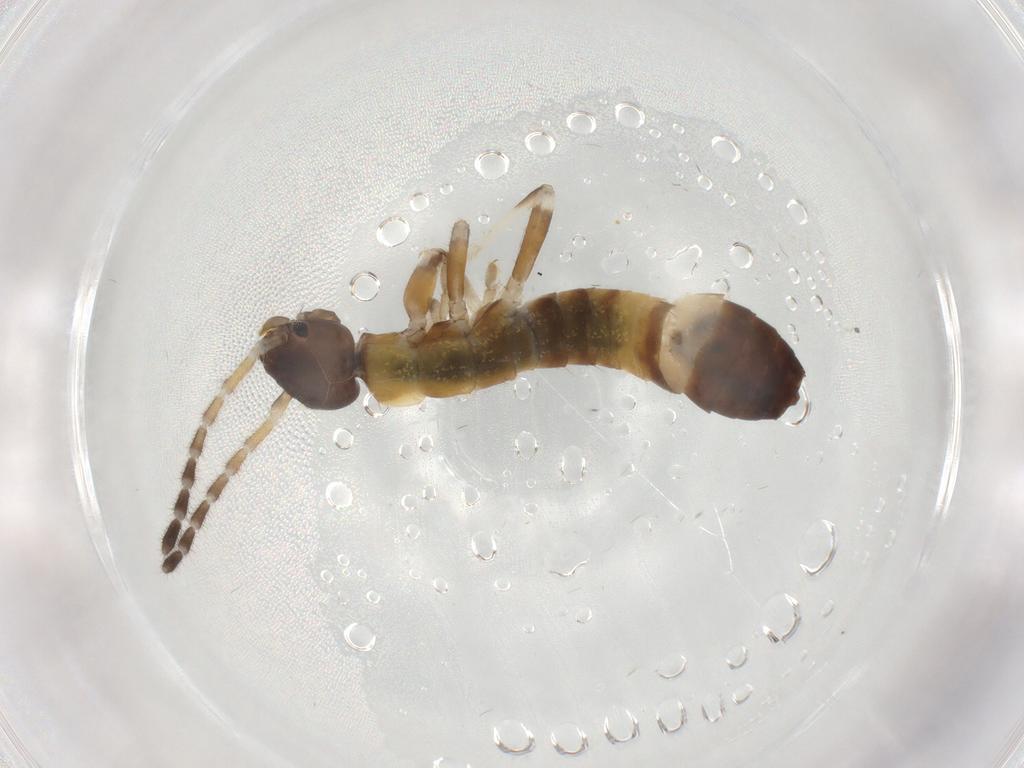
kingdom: Animalia
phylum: Arthropoda
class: Insecta
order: Dermaptera
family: Anisolabididae
